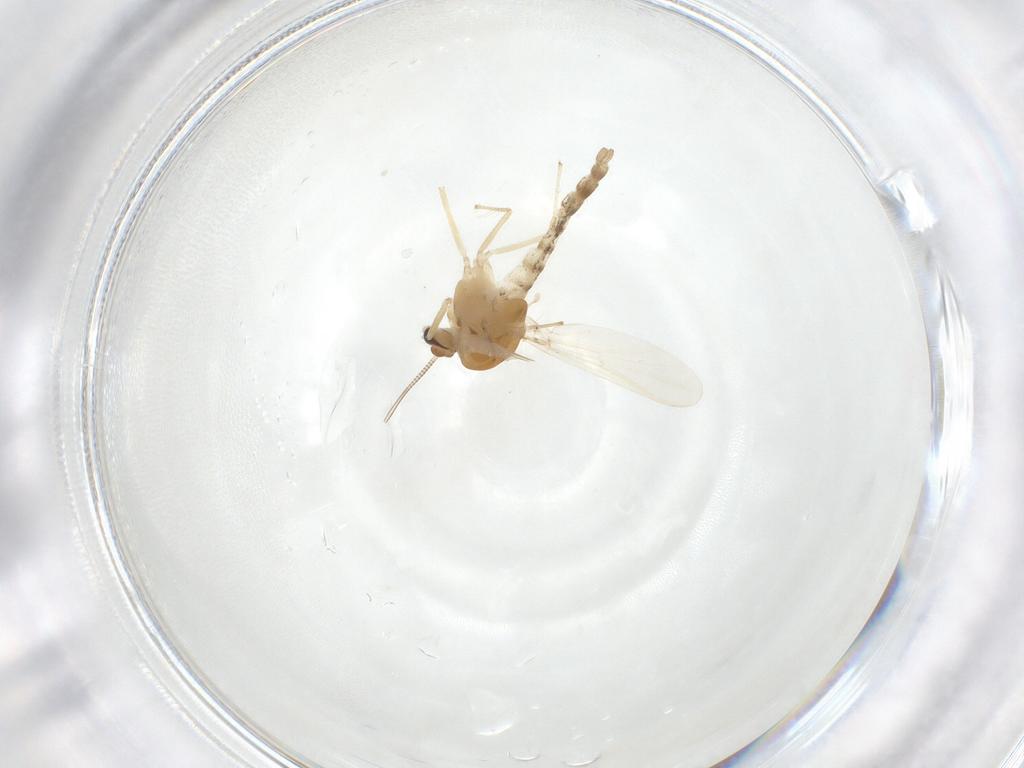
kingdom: Animalia
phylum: Arthropoda
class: Insecta
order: Diptera
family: Chironomidae
